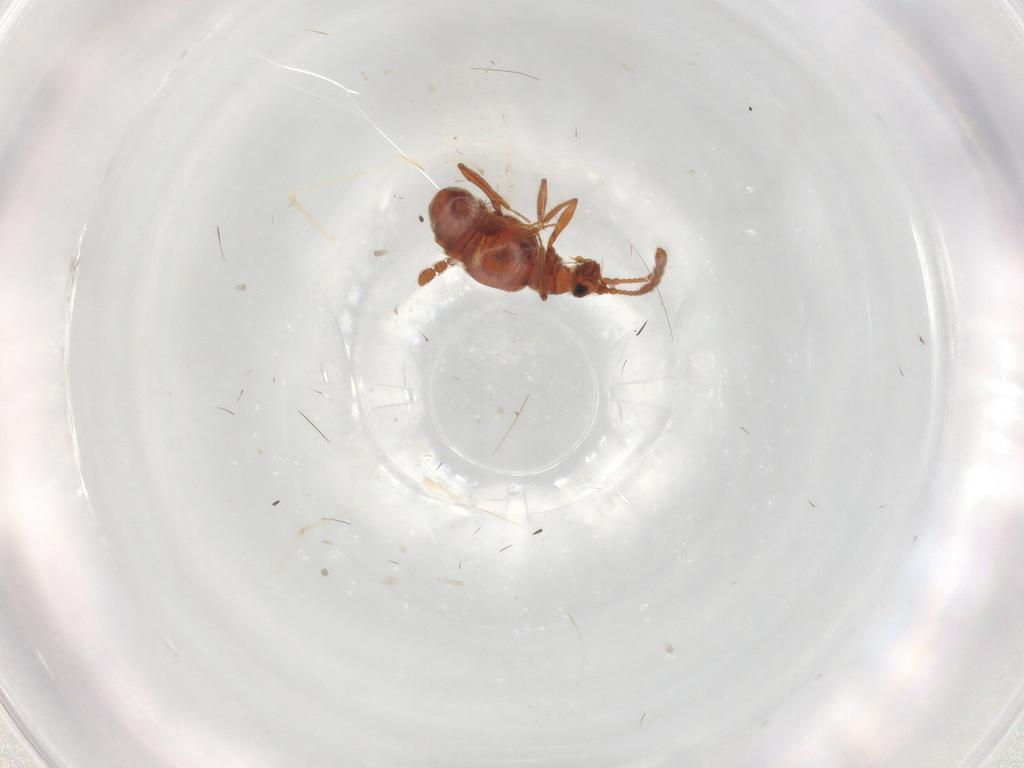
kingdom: Animalia
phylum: Arthropoda
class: Insecta
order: Coleoptera
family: Staphylinidae
